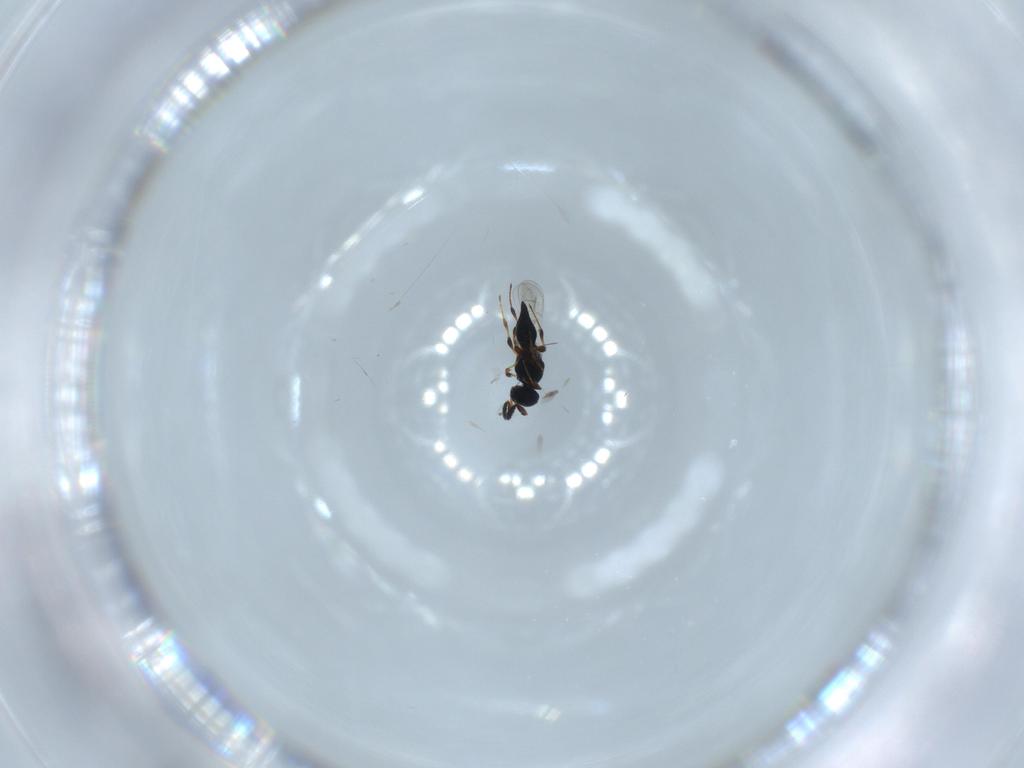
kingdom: Animalia
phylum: Arthropoda
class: Insecta
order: Hymenoptera
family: Platygastridae
